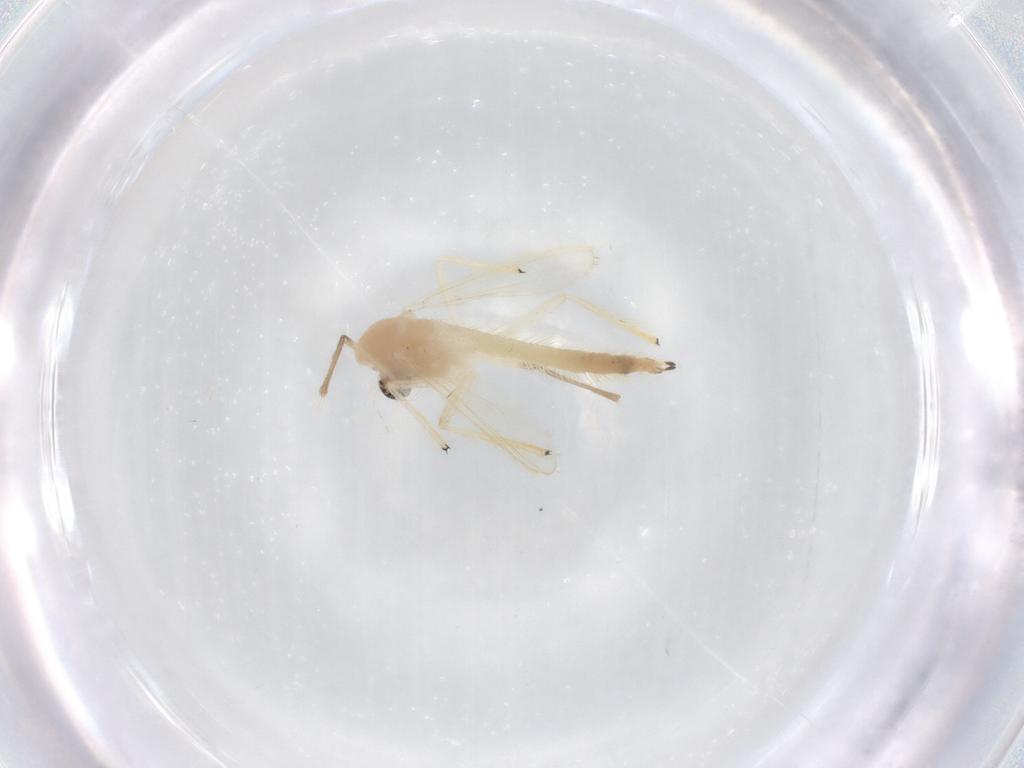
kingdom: Animalia
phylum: Arthropoda
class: Insecta
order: Diptera
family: Chironomidae
